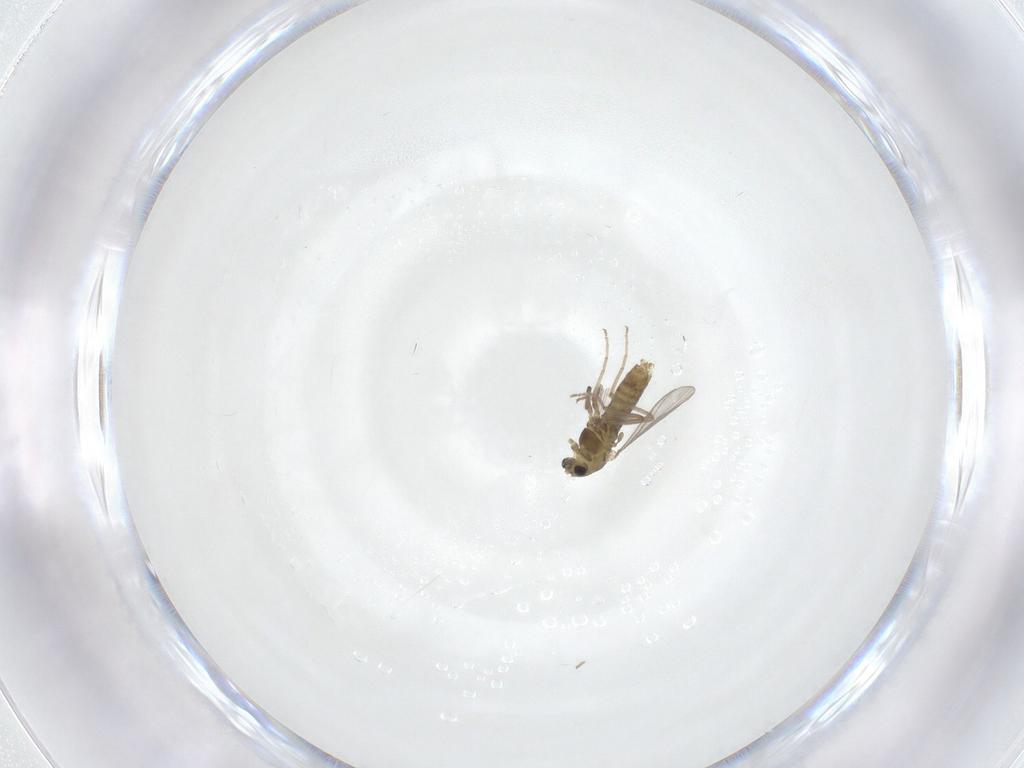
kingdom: Animalia
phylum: Arthropoda
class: Insecta
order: Diptera
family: Chironomidae
